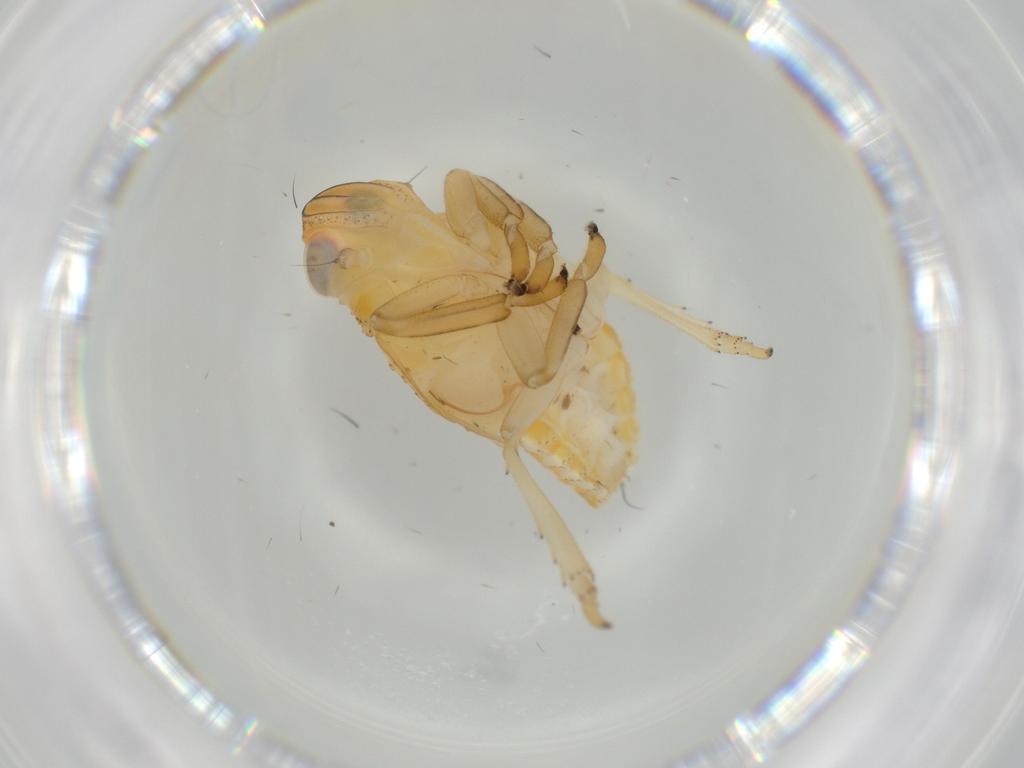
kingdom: Animalia
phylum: Arthropoda
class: Insecta
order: Hemiptera
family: Issidae
